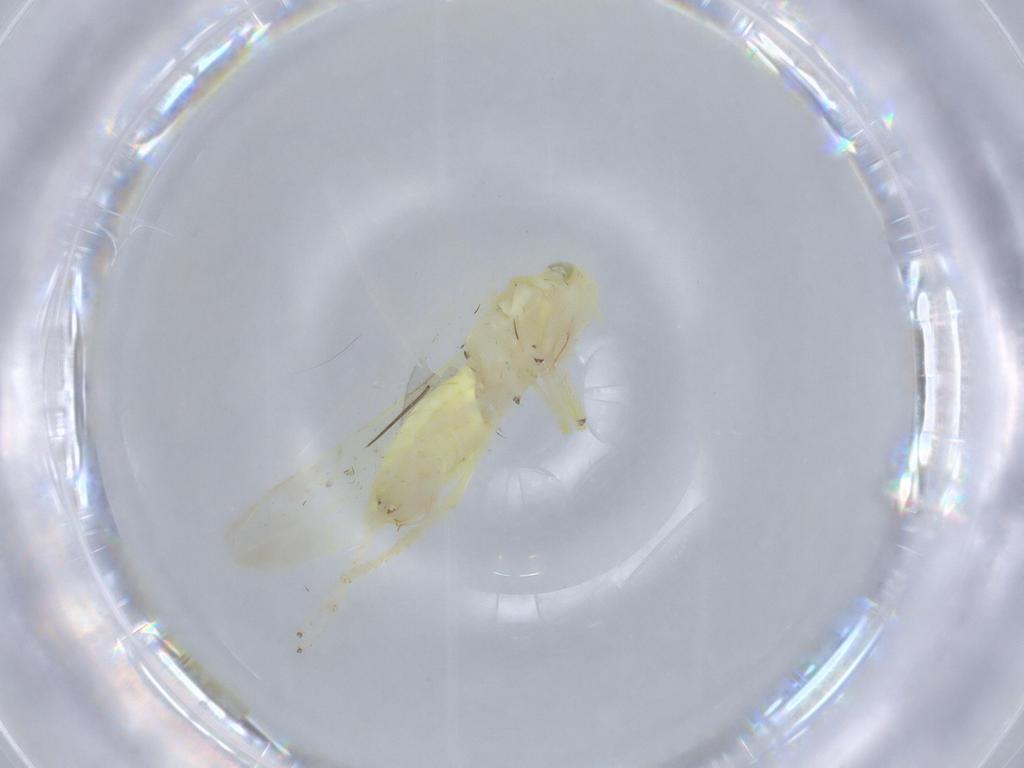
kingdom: Animalia
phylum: Arthropoda
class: Insecta
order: Hemiptera
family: Cicadellidae
